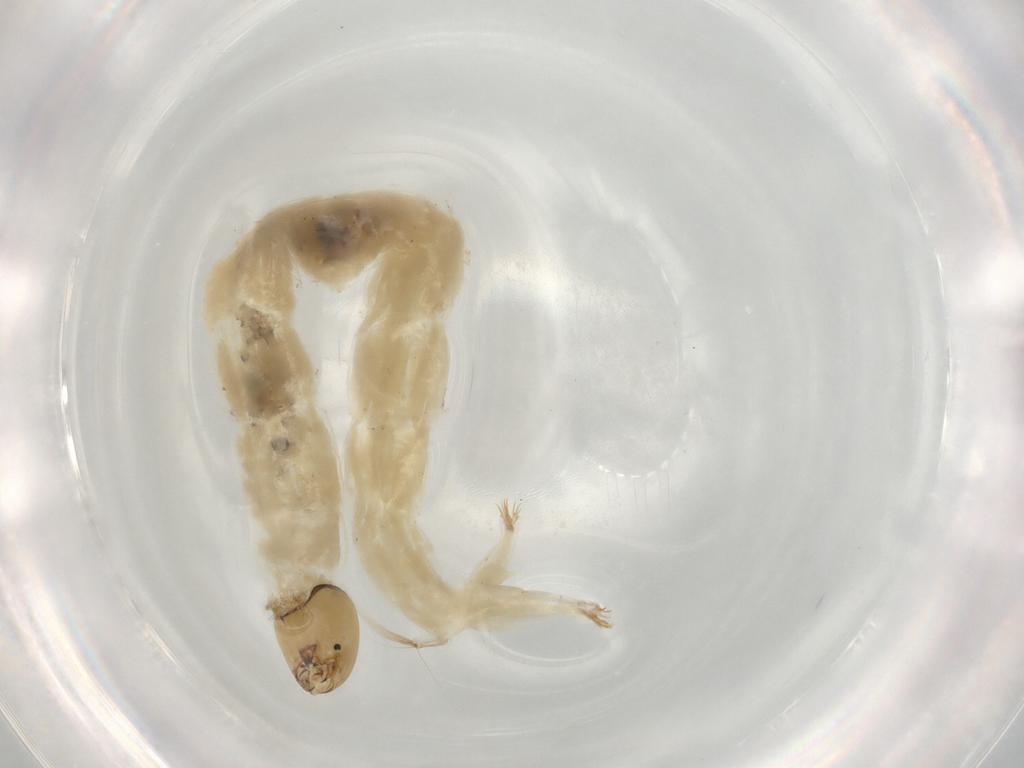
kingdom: Animalia
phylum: Arthropoda
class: Insecta
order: Diptera
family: Chironomidae
